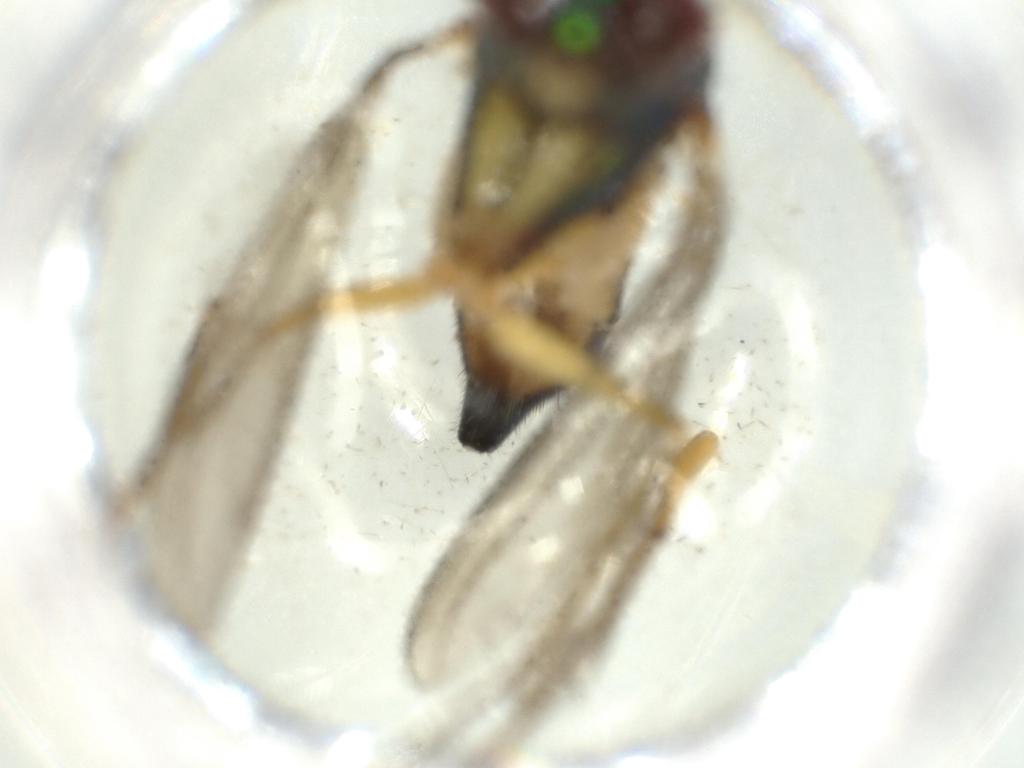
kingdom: Animalia
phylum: Arthropoda
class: Insecta
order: Diptera
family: Dolichopodidae
